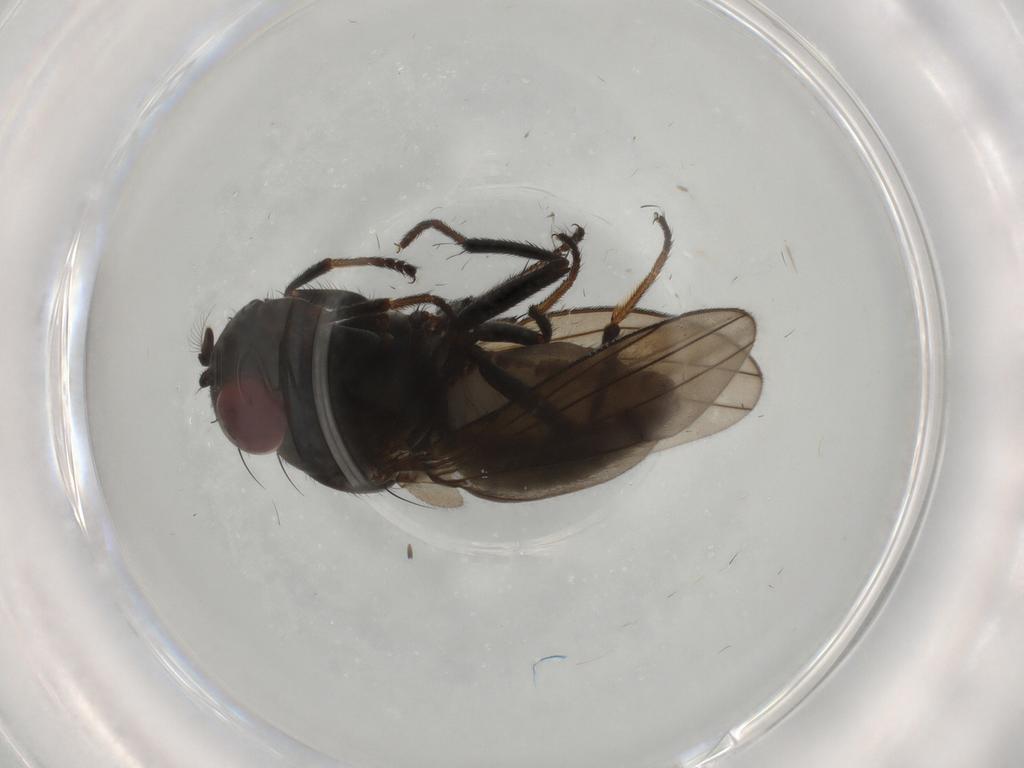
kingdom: Animalia
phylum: Arthropoda
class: Insecta
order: Diptera
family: Ephydridae
